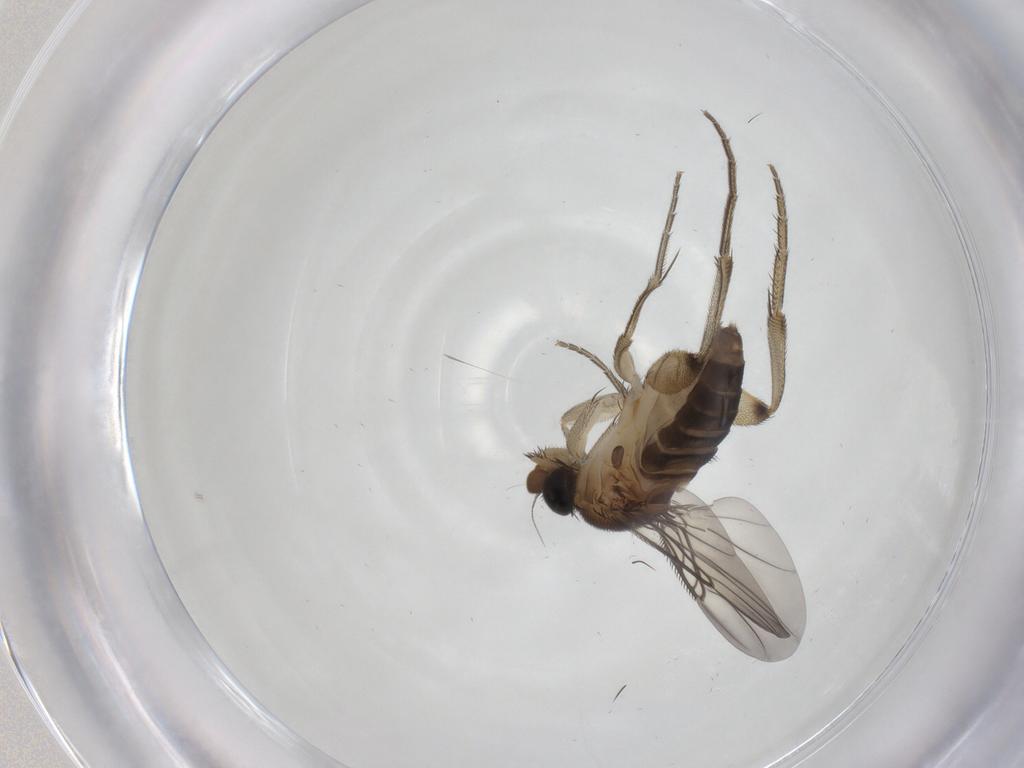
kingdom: Animalia
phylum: Arthropoda
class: Insecta
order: Diptera
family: Phoridae
